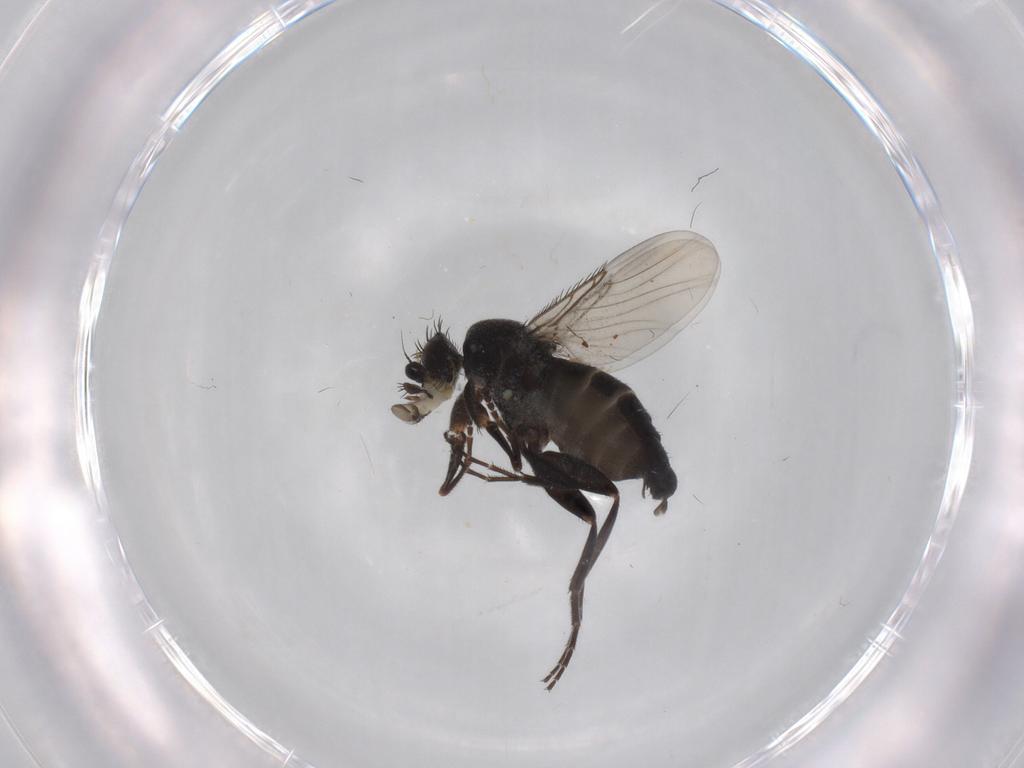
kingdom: Animalia
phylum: Arthropoda
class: Insecta
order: Diptera
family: Phoridae
